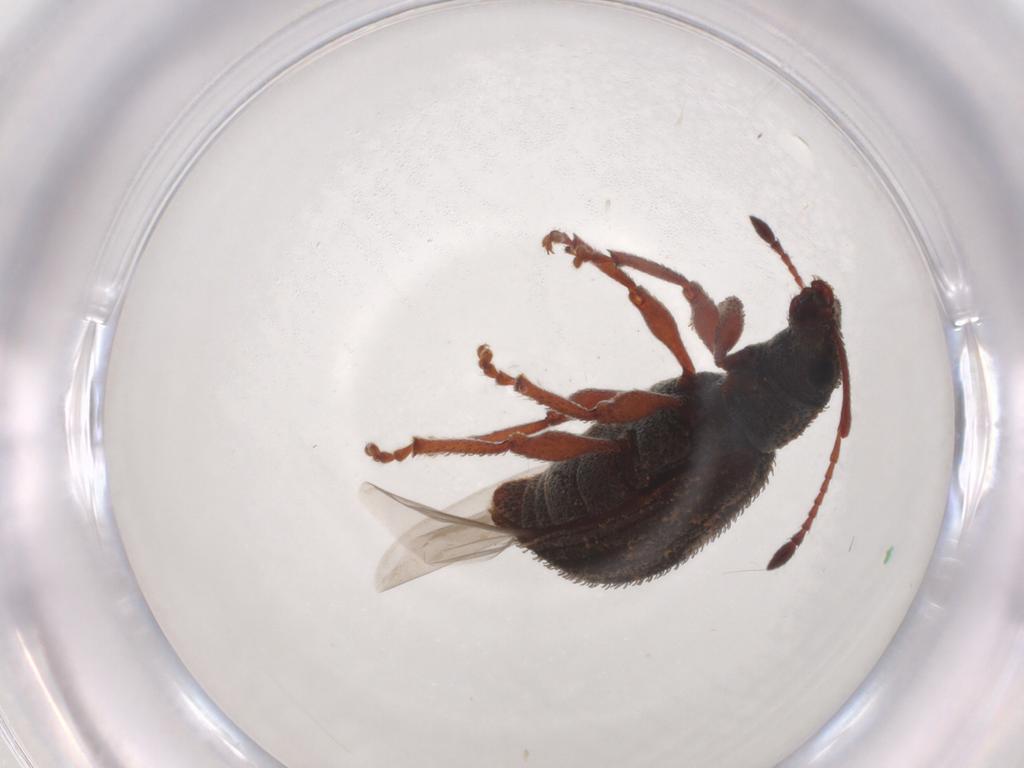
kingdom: Animalia
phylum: Arthropoda
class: Insecta
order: Coleoptera
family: Curculionidae
